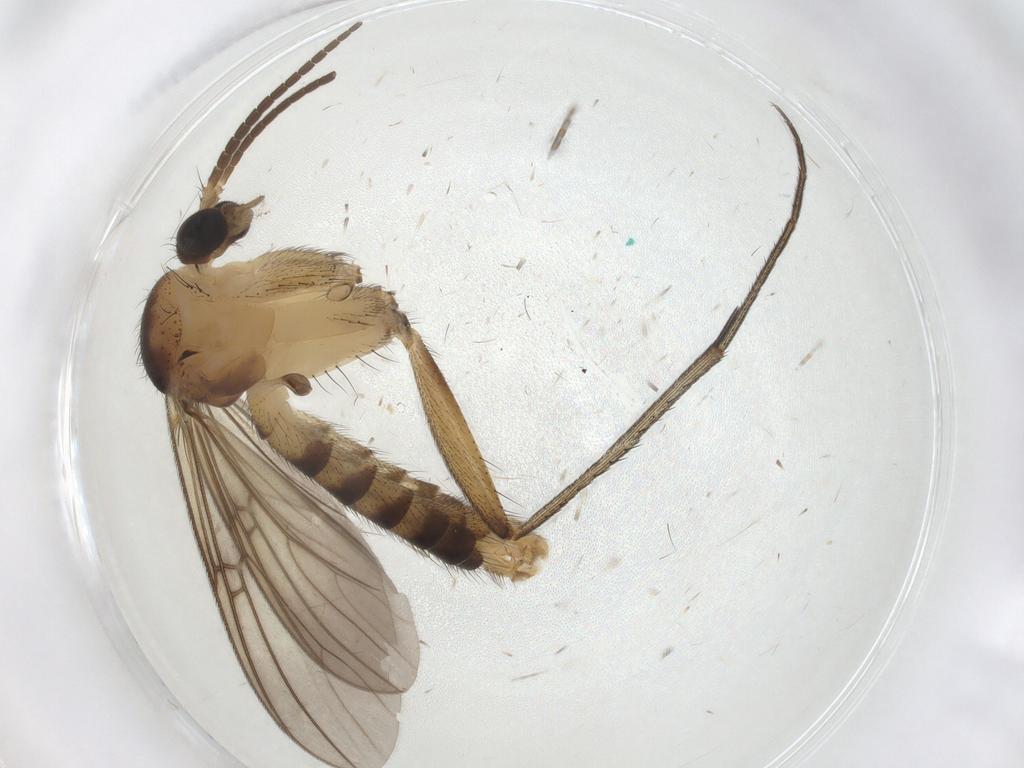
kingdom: Animalia
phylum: Arthropoda
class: Insecta
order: Diptera
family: Mycetophilidae
